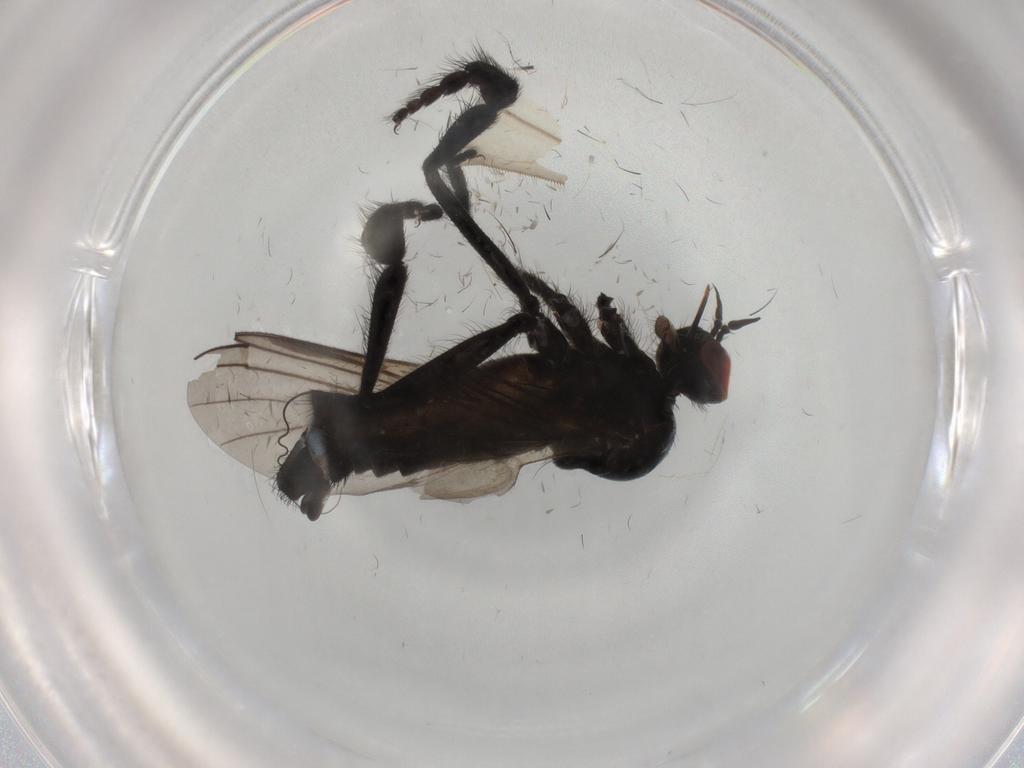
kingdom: Animalia
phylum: Arthropoda
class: Insecta
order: Diptera
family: Empididae
